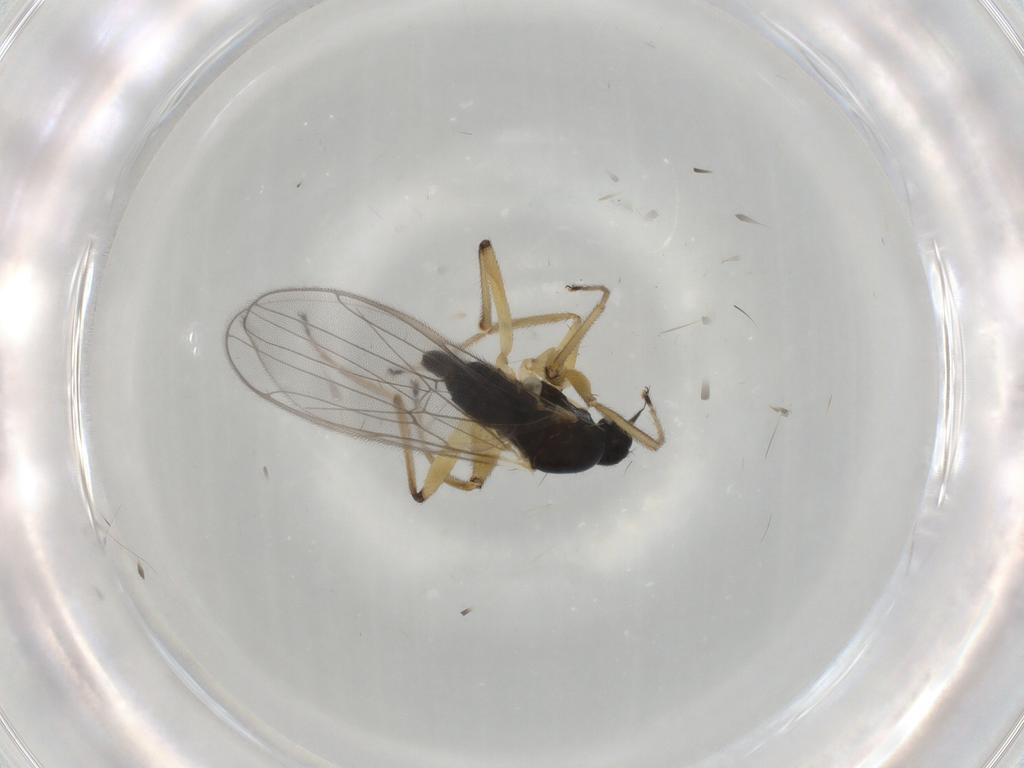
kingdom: Animalia
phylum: Arthropoda
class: Insecta
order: Diptera
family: Hybotidae
